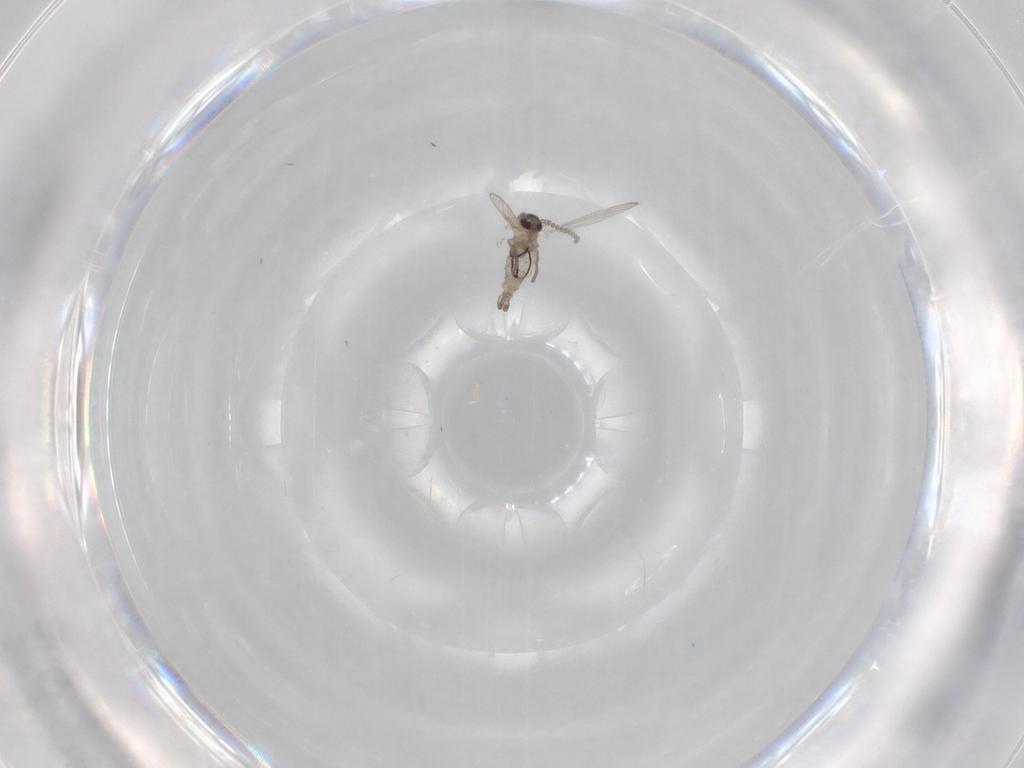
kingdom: Animalia
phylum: Arthropoda
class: Insecta
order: Diptera
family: Psychodidae
